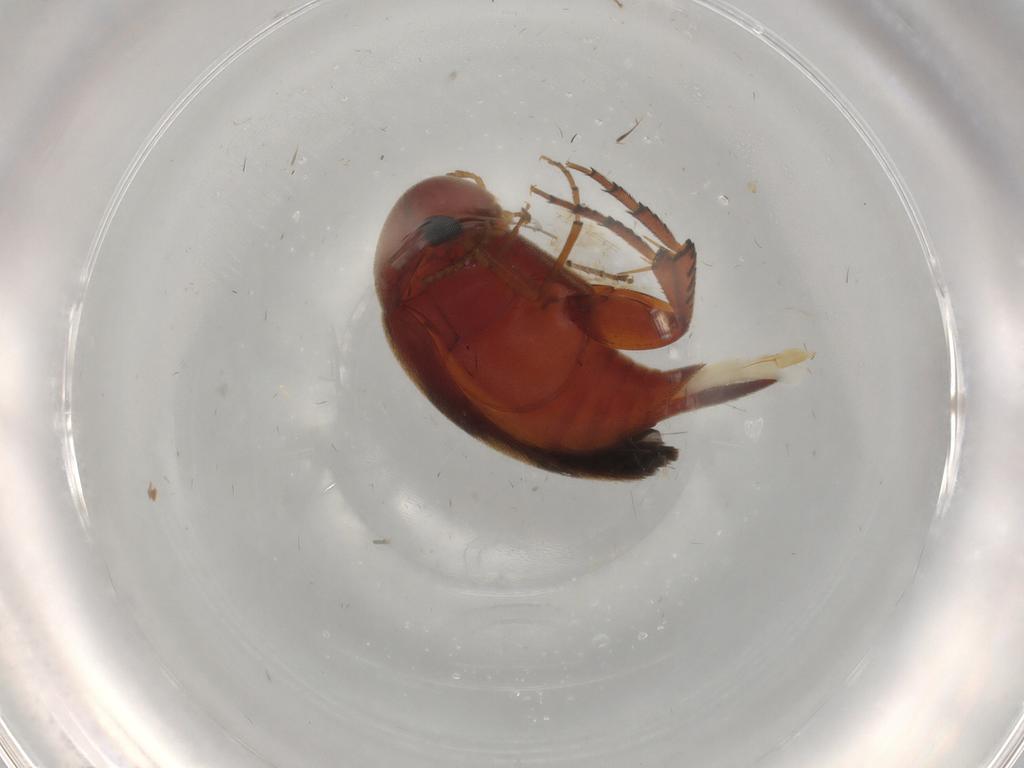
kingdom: Animalia
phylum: Arthropoda
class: Insecta
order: Coleoptera
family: Mordellidae
